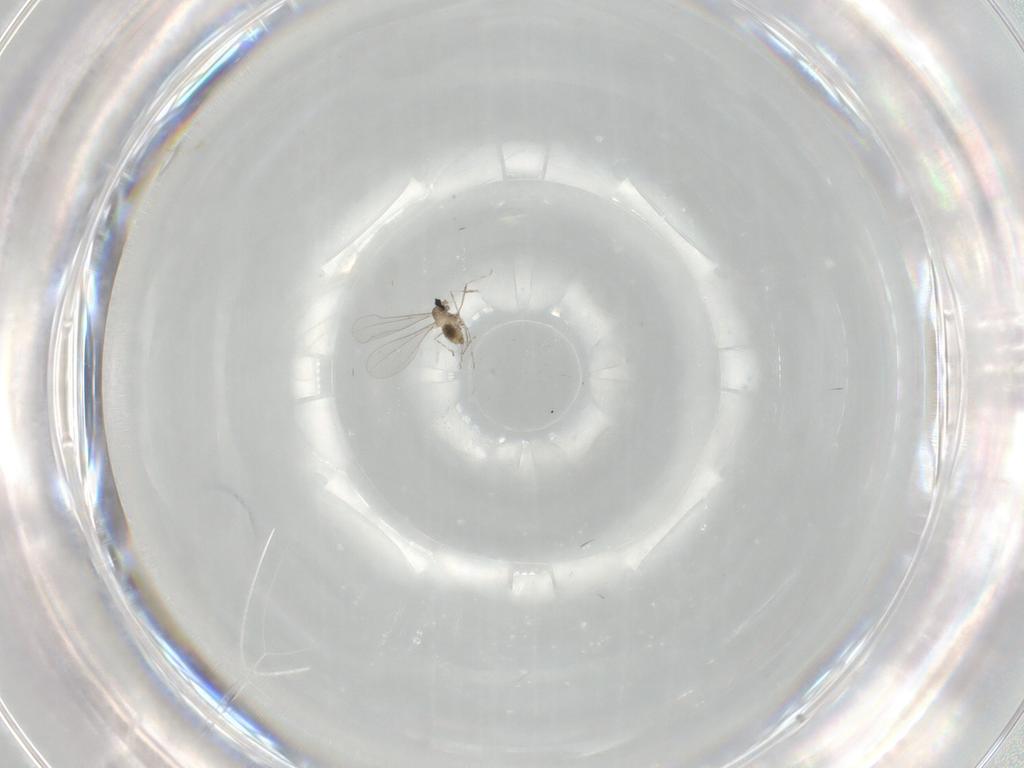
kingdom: Animalia
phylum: Arthropoda
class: Insecta
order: Diptera
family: Cecidomyiidae
